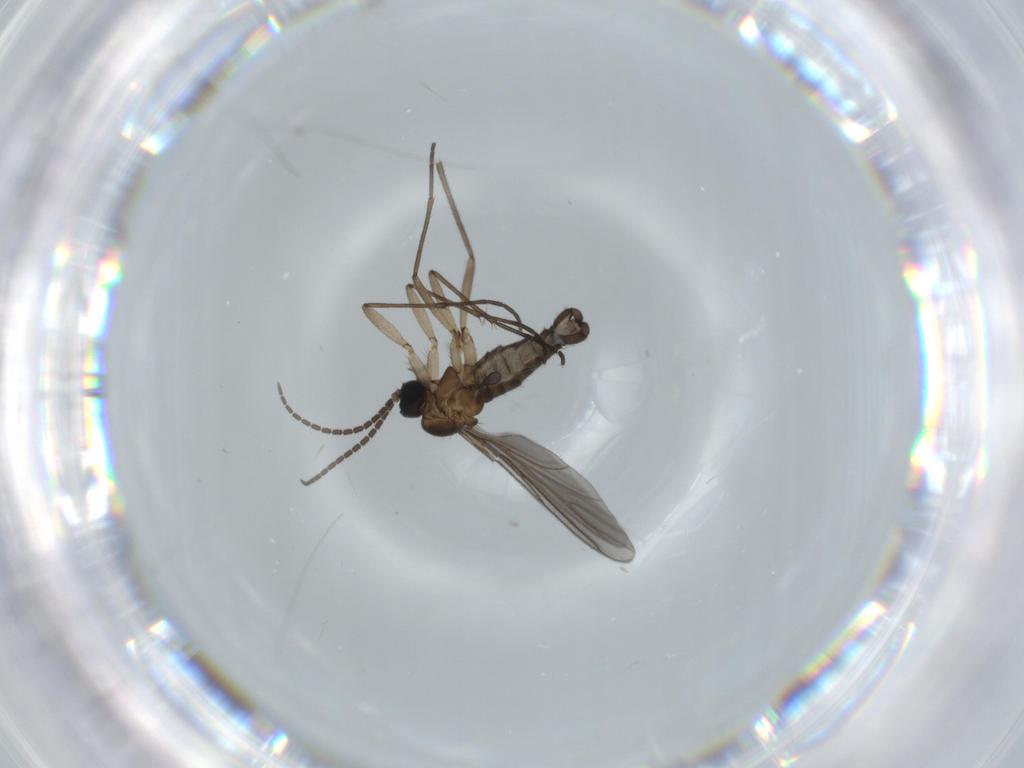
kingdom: Animalia
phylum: Arthropoda
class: Insecta
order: Diptera
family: Sciaridae
